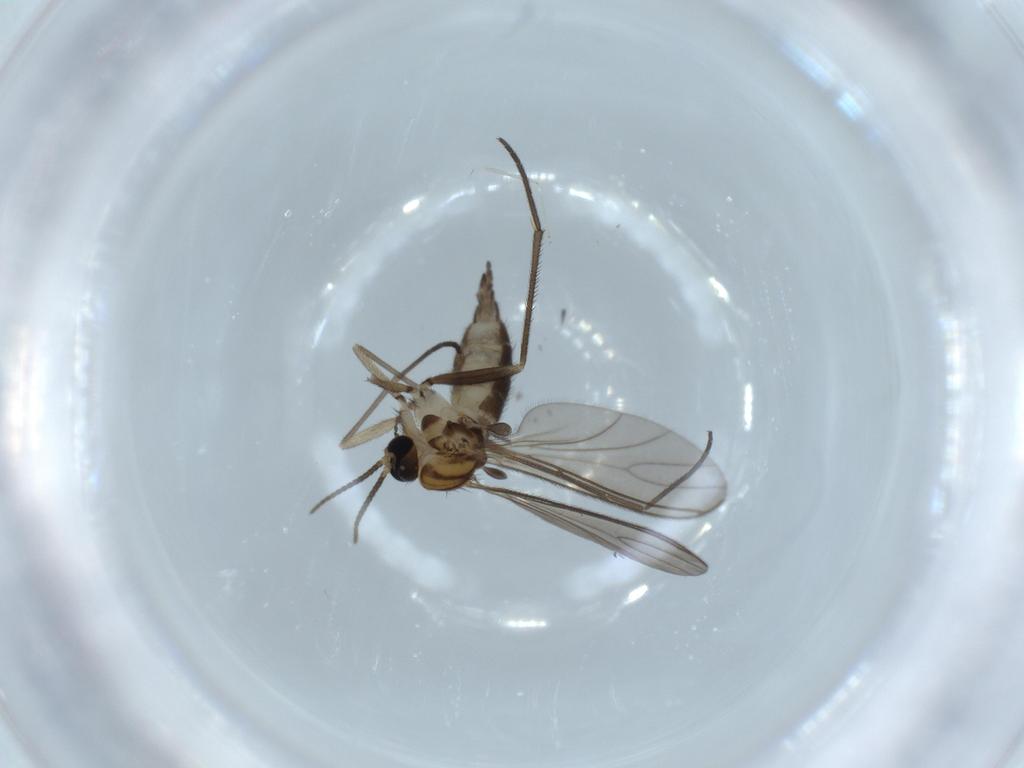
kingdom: Animalia
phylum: Arthropoda
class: Insecta
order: Diptera
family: Sciaridae
